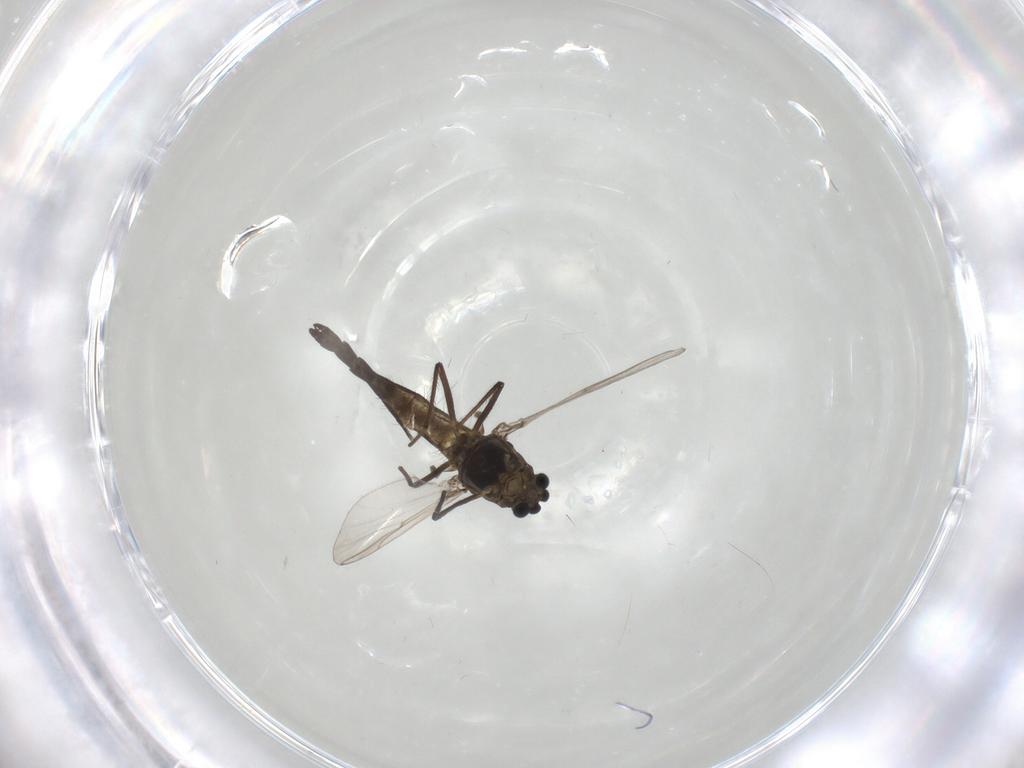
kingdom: Animalia
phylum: Arthropoda
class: Insecta
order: Diptera
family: Chironomidae
